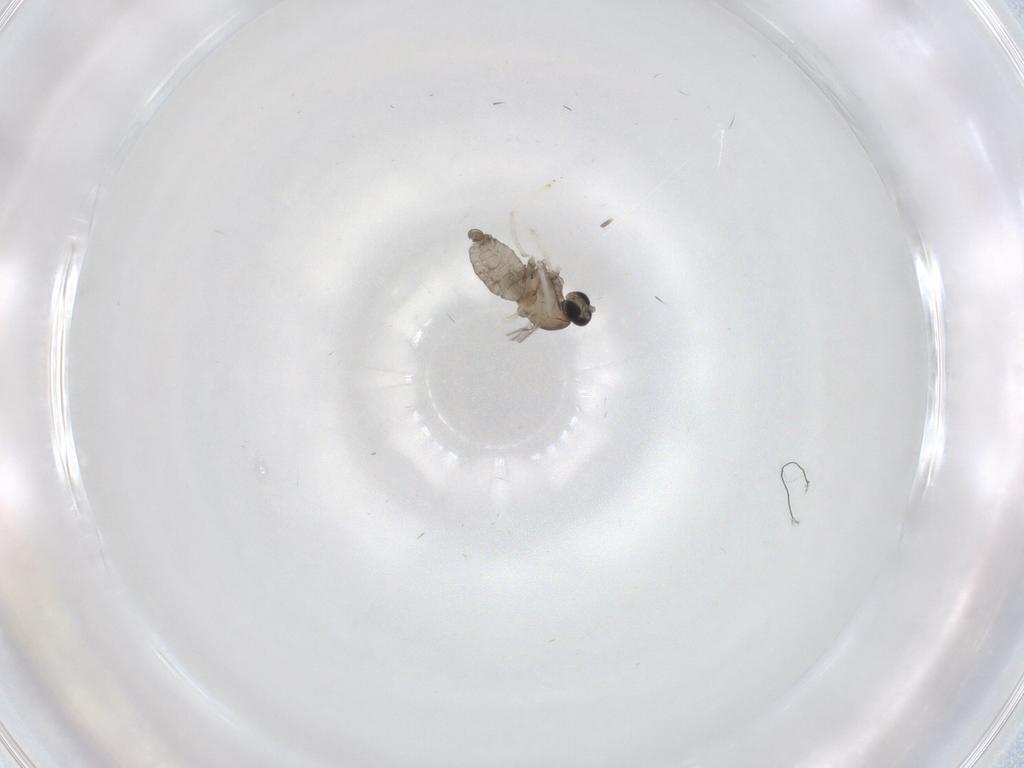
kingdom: Animalia
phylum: Arthropoda
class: Insecta
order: Diptera
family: Cecidomyiidae
